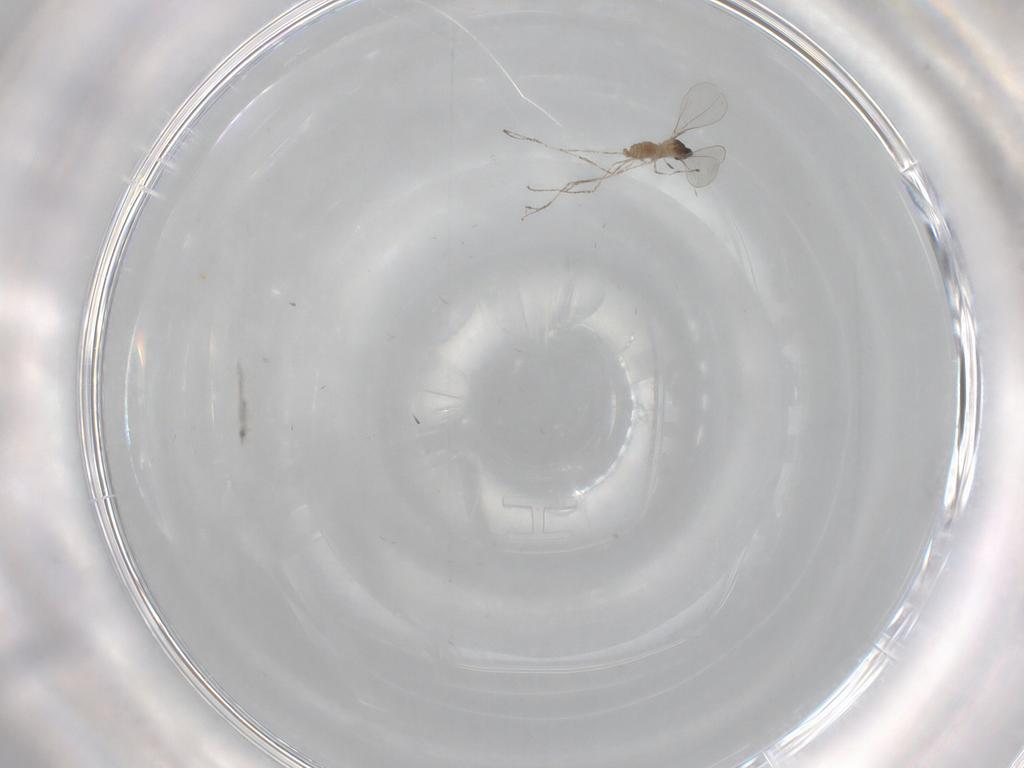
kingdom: Animalia
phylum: Arthropoda
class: Insecta
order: Diptera
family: Cecidomyiidae
